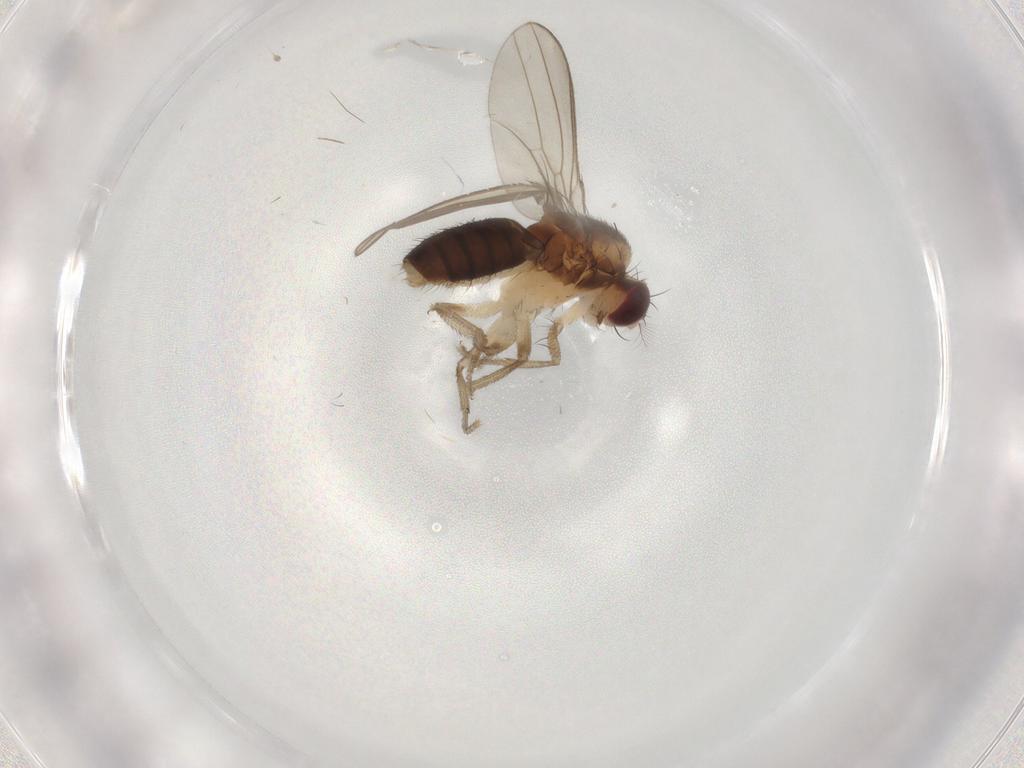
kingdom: Animalia
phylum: Arthropoda
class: Insecta
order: Diptera
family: Drosophilidae
